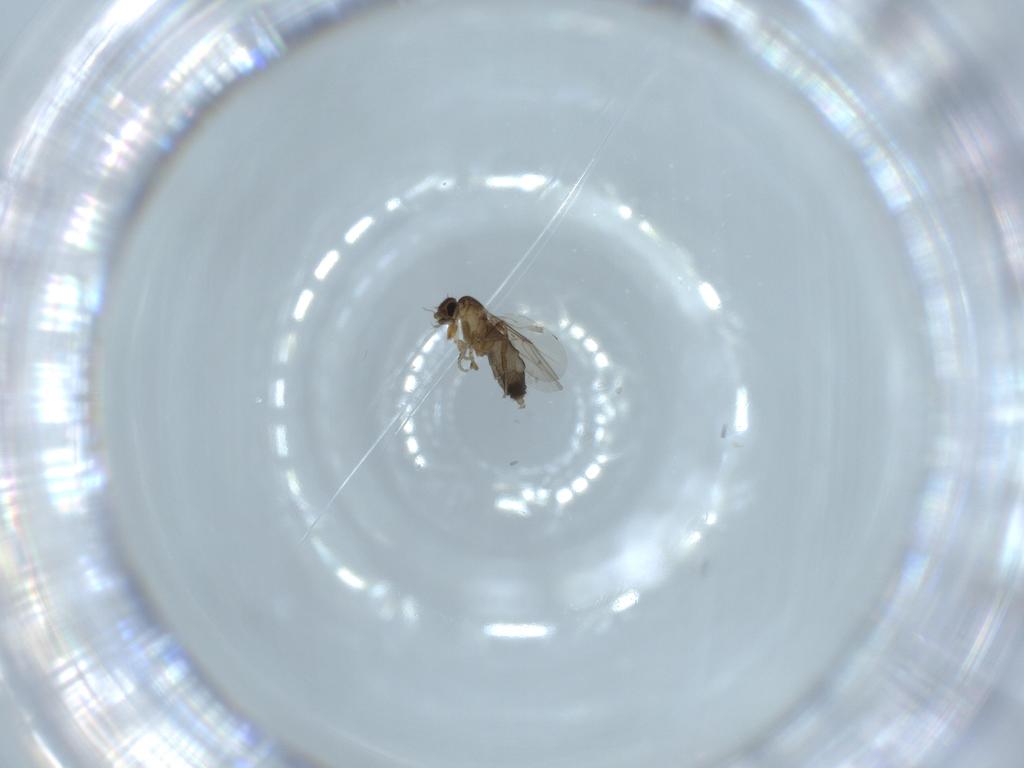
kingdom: Animalia
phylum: Arthropoda
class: Insecta
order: Diptera
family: Phoridae
